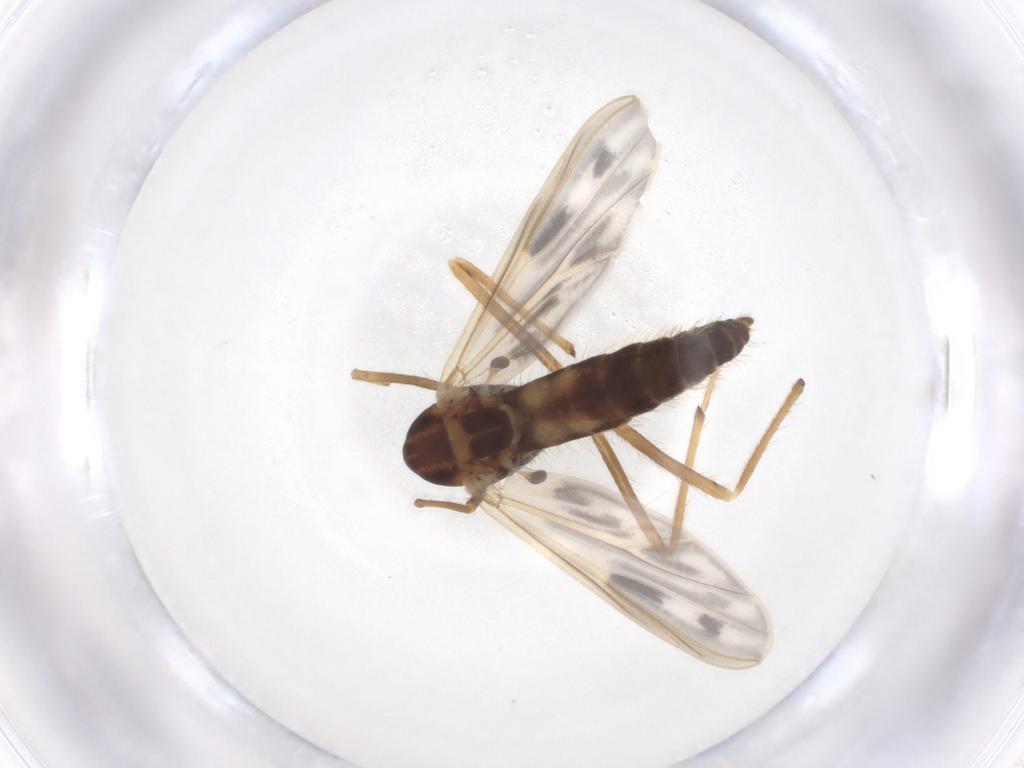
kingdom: Animalia
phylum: Arthropoda
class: Insecta
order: Diptera
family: Chironomidae
